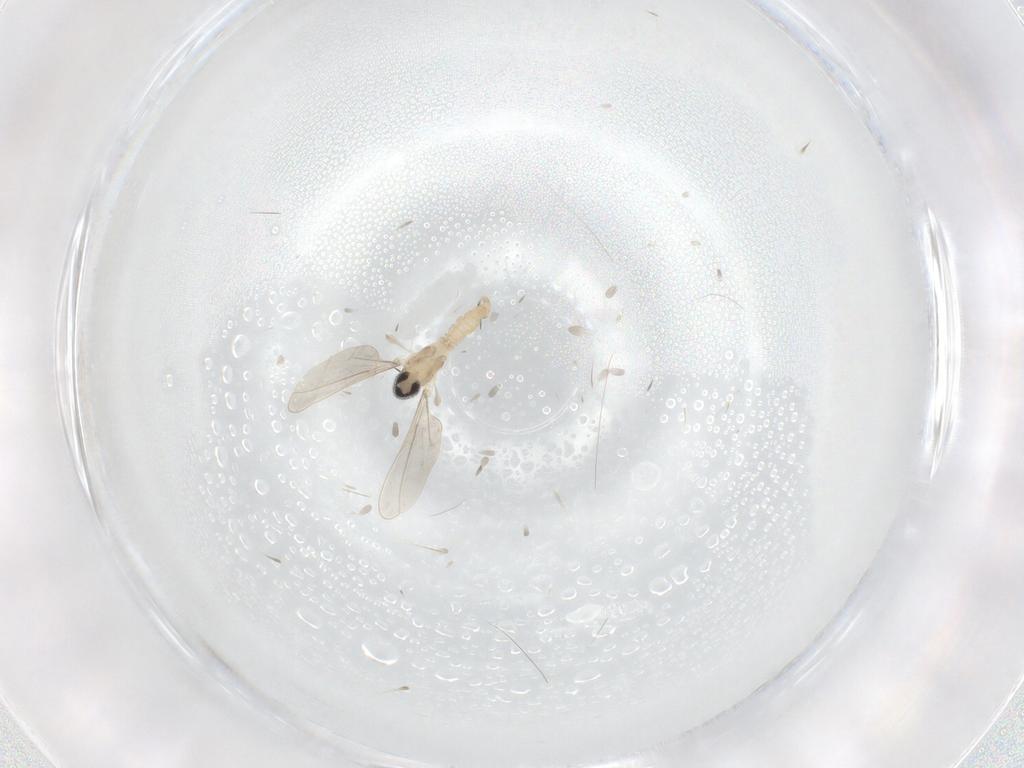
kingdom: Animalia
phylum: Arthropoda
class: Insecta
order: Diptera
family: Cecidomyiidae
